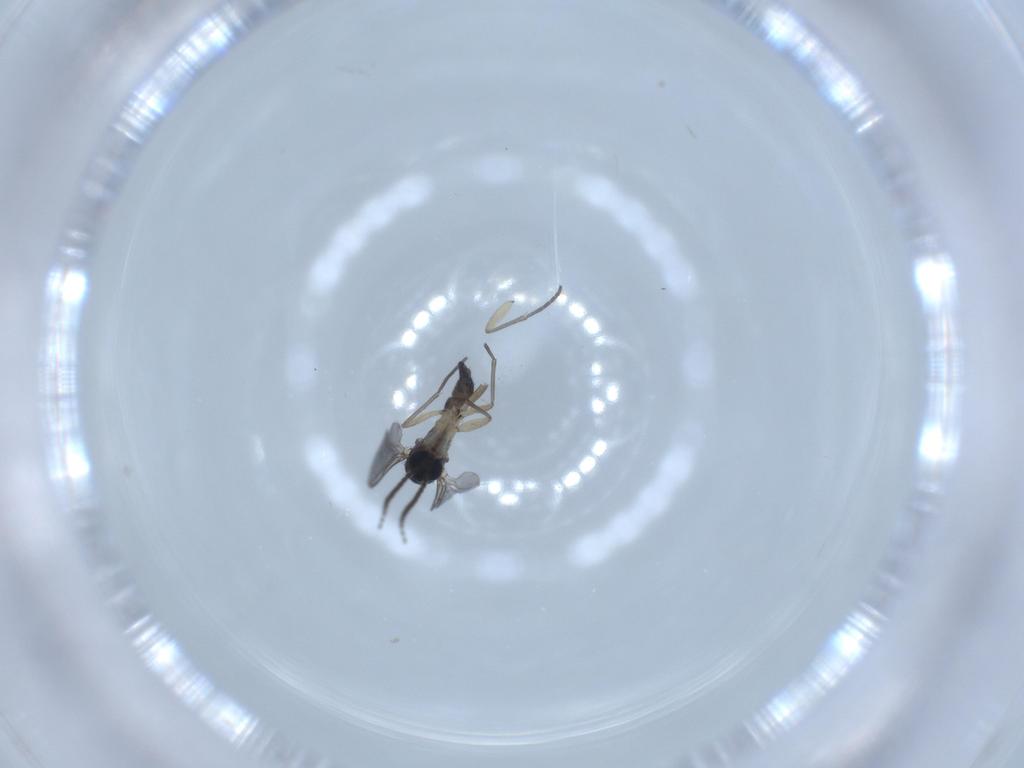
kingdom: Animalia
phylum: Arthropoda
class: Insecta
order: Diptera
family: Sciaridae
